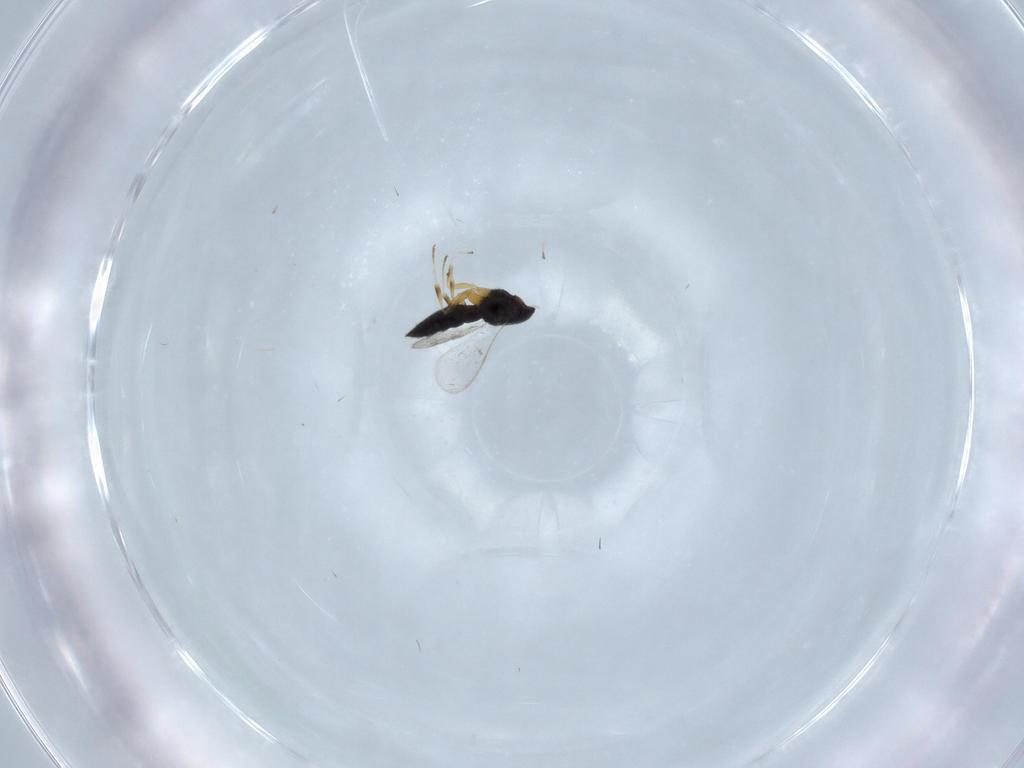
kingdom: Animalia
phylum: Arthropoda
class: Insecta
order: Hymenoptera
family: Scelionidae
